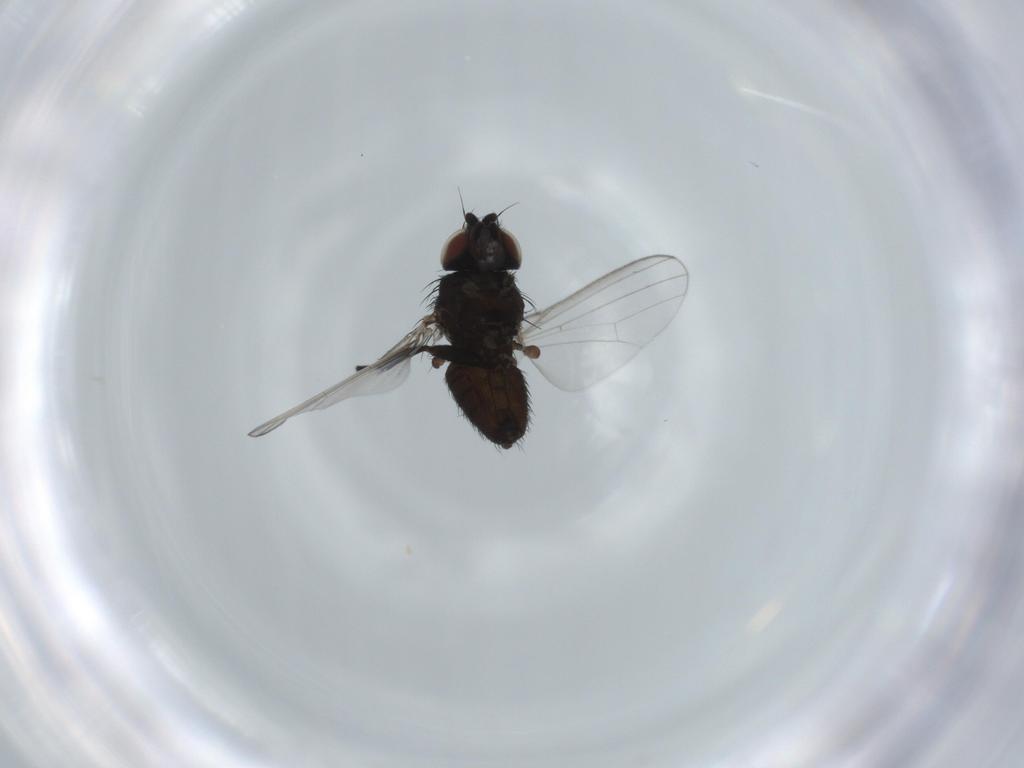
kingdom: Animalia
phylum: Arthropoda
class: Insecta
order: Diptera
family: Milichiidae
